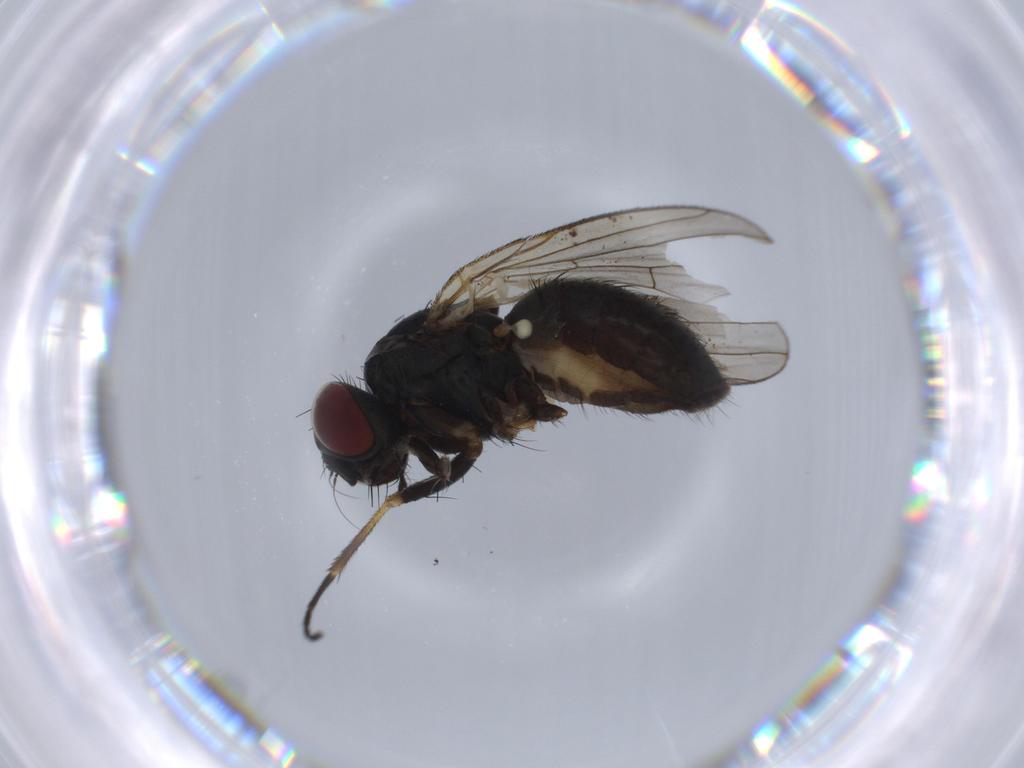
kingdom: Animalia
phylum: Arthropoda
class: Insecta
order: Diptera
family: Muscidae
